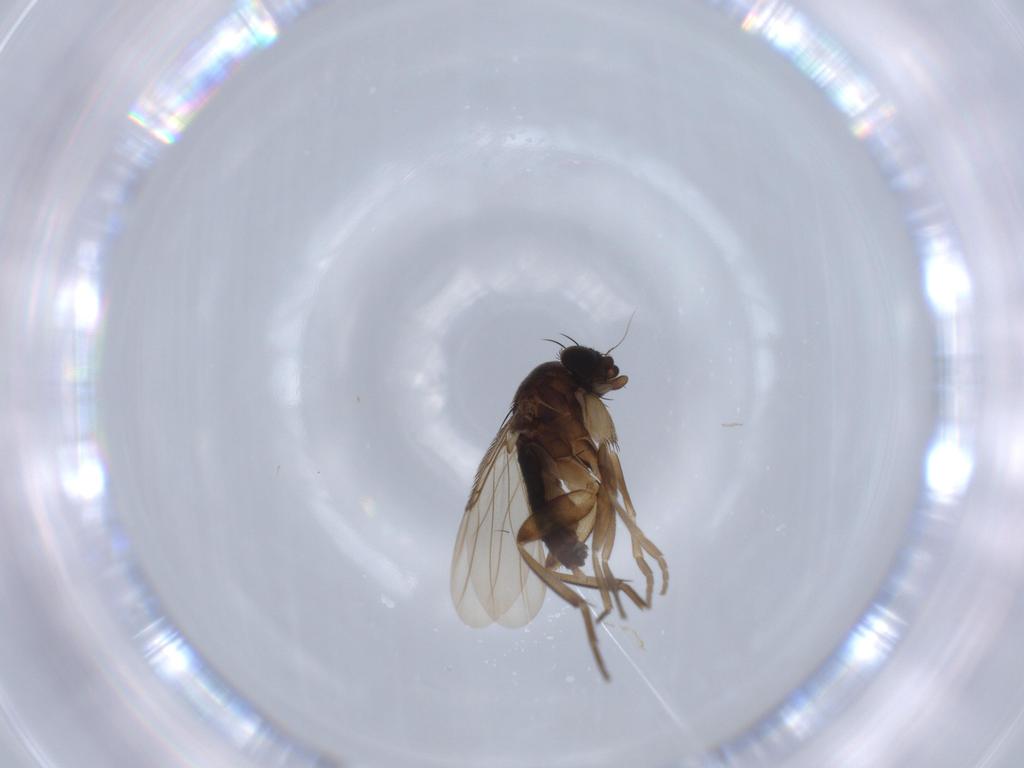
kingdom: Animalia
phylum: Arthropoda
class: Insecta
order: Diptera
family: Phoridae
